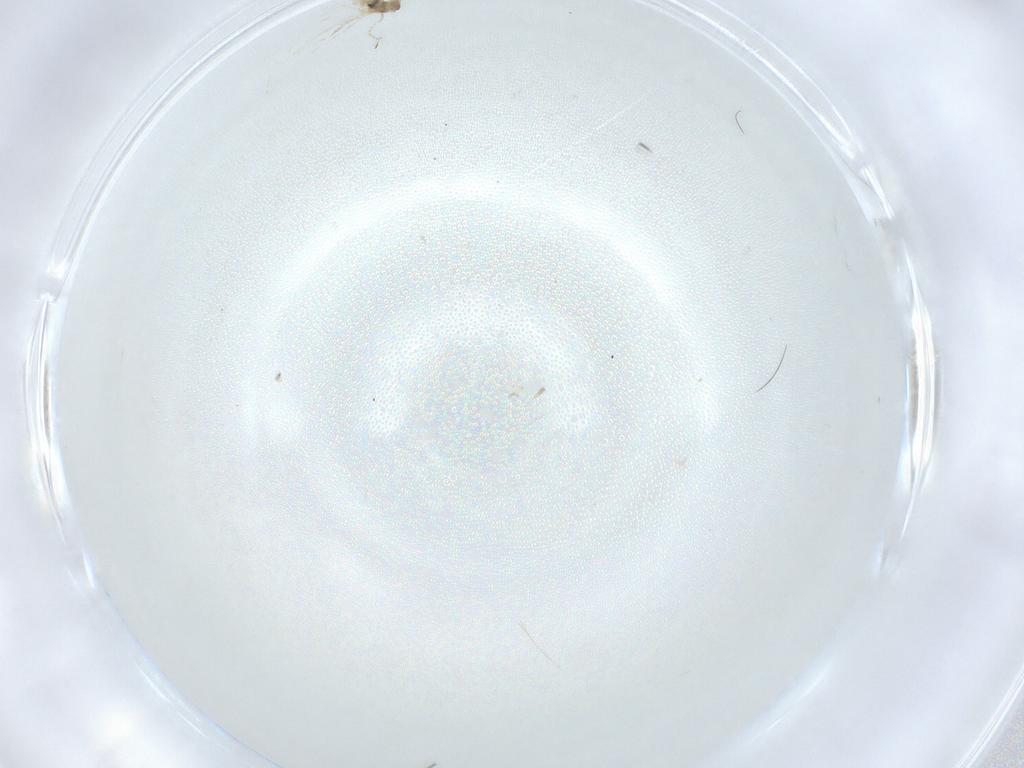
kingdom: Animalia
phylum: Arthropoda
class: Insecta
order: Diptera
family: Cecidomyiidae
